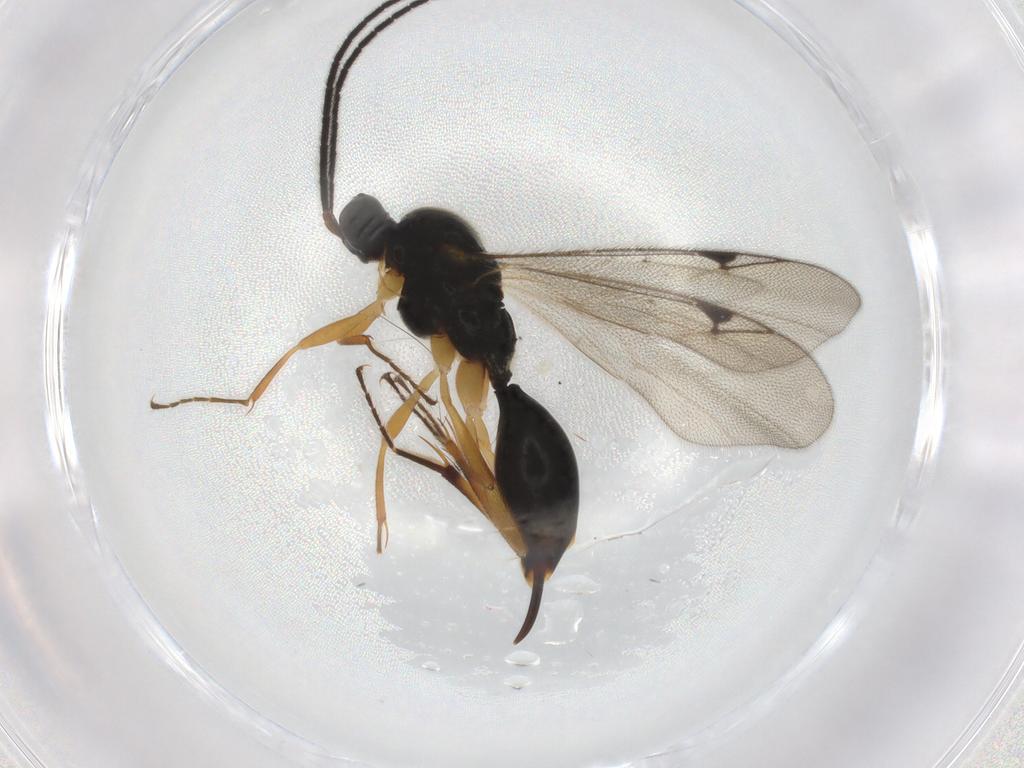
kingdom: Animalia
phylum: Arthropoda
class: Insecta
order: Hymenoptera
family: Proctotrupidae
